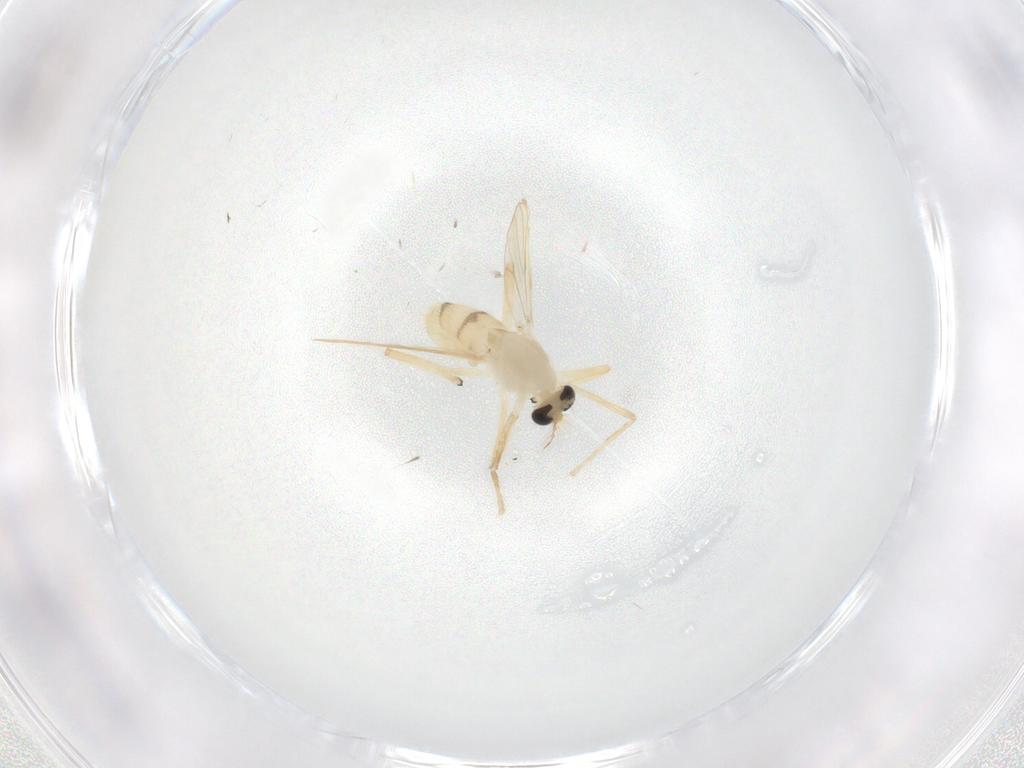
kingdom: Animalia
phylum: Arthropoda
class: Insecta
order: Diptera
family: Chironomidae
